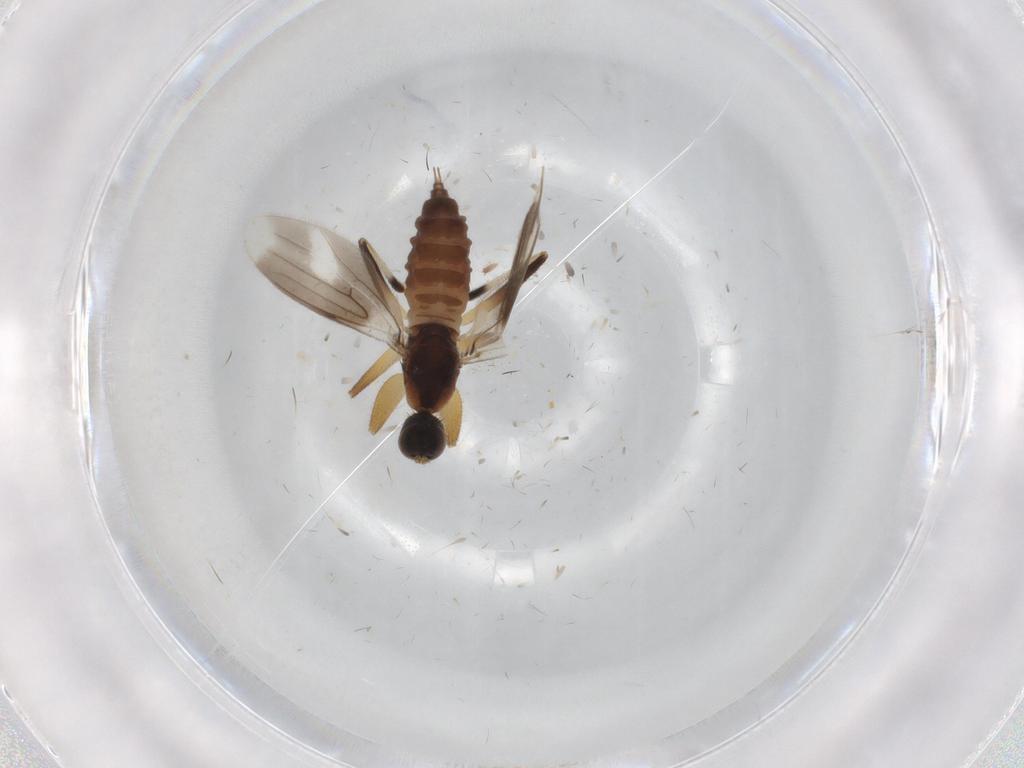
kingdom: Animalia
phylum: Arthropoda
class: Insecta
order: Diptera
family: Hybotidae
